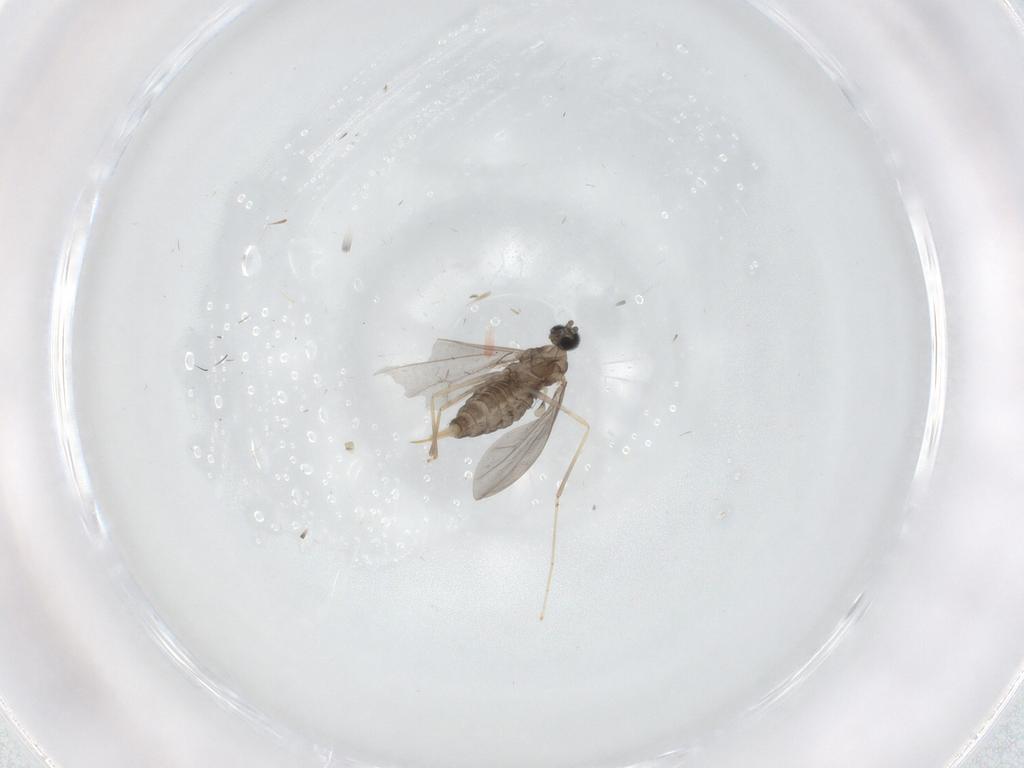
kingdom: Animalia
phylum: Arthropoda
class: Insecta
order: Diptera
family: Cecidomyiidae
